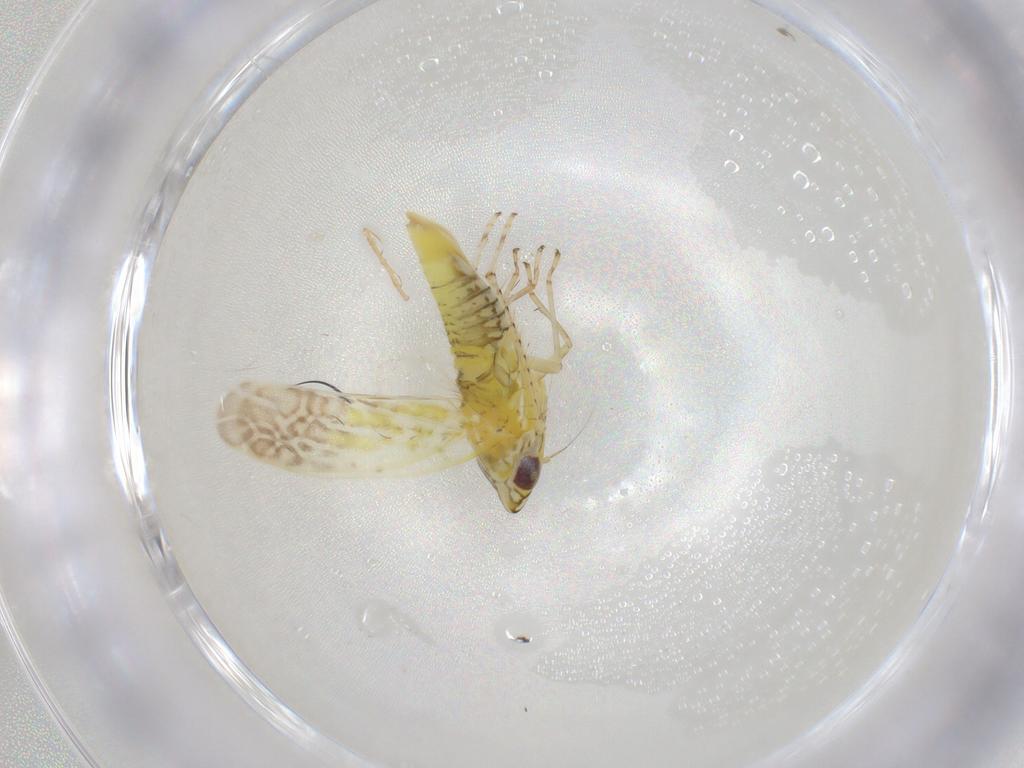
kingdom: Animalia
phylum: Arthropoda
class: Insecta
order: Hemiptera
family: Cicadellidae
